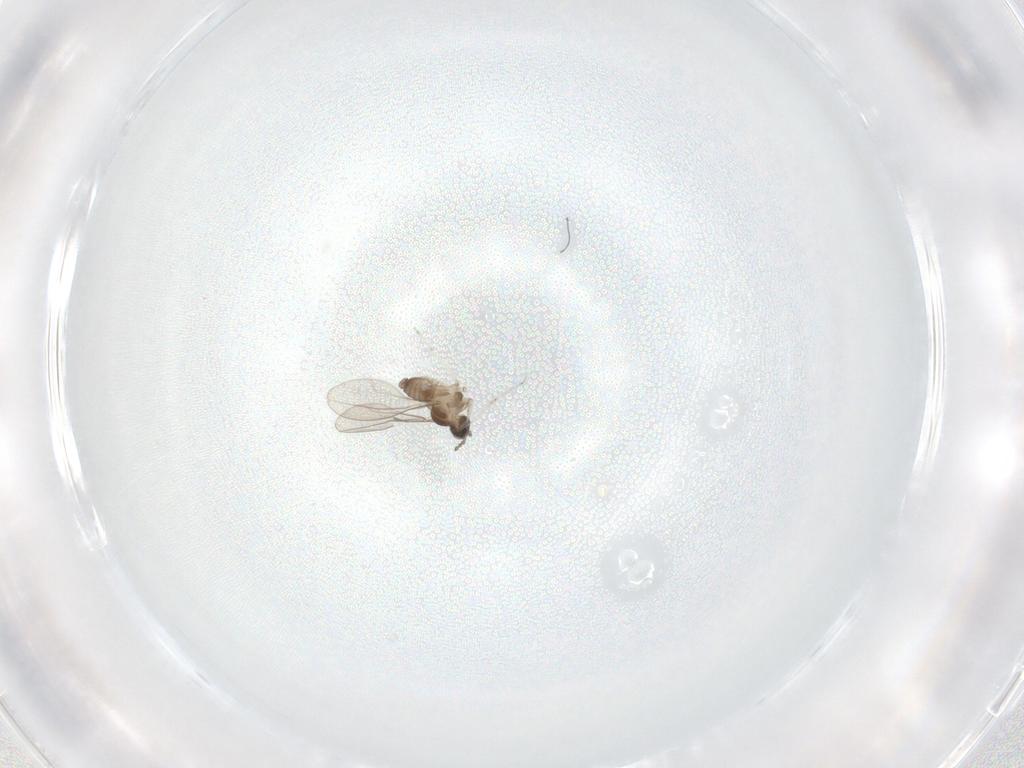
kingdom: Animalia
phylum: Arthropoda
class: Insecta
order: Diptera
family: Cecidomyiidae
